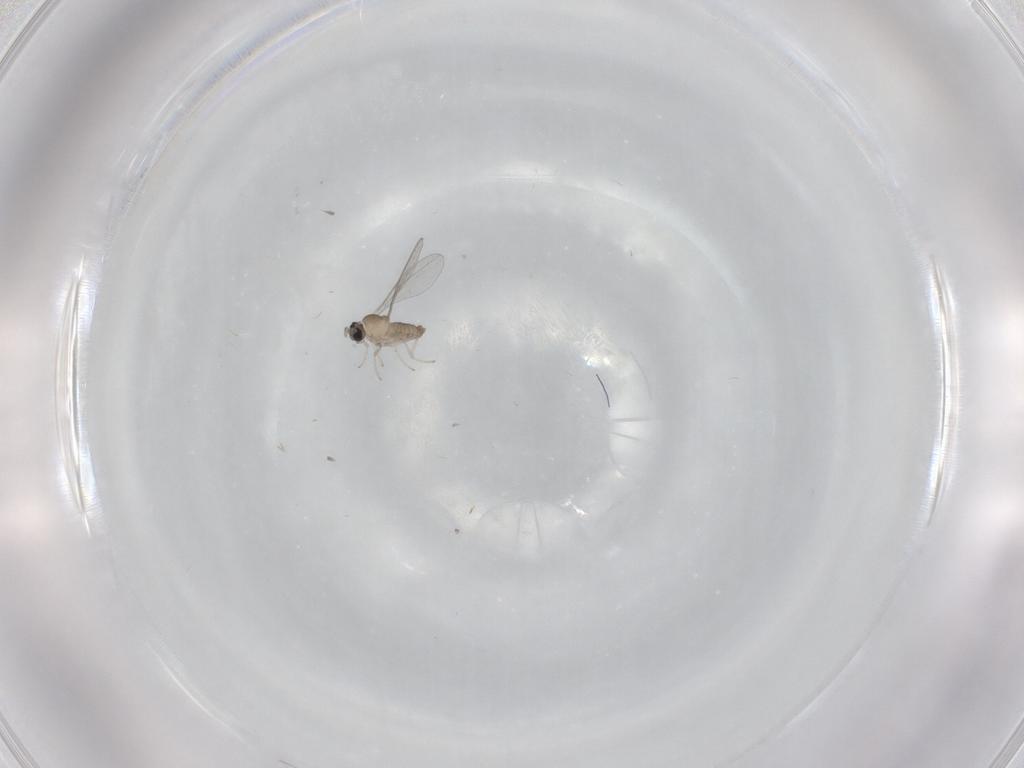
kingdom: Animalia
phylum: Arthropoda
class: Insecta
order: Diptera
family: Cecidomyiidae
